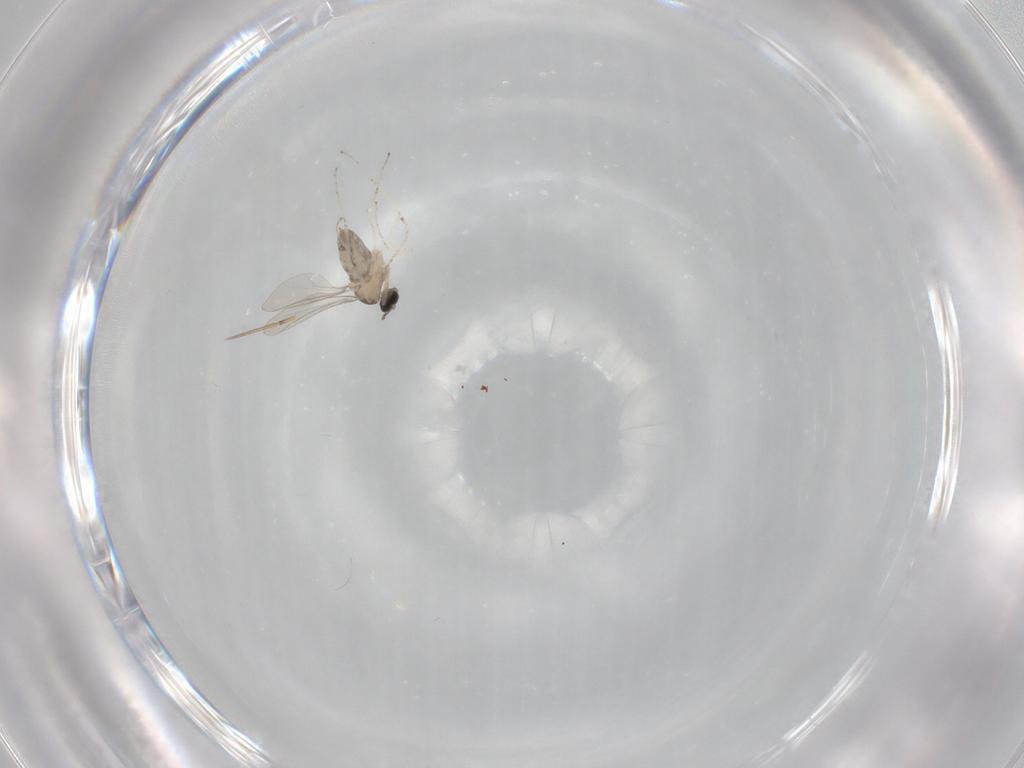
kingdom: Animalia
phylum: Arthropoda
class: Insecta
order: Diptera
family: Cecidomyiidae
